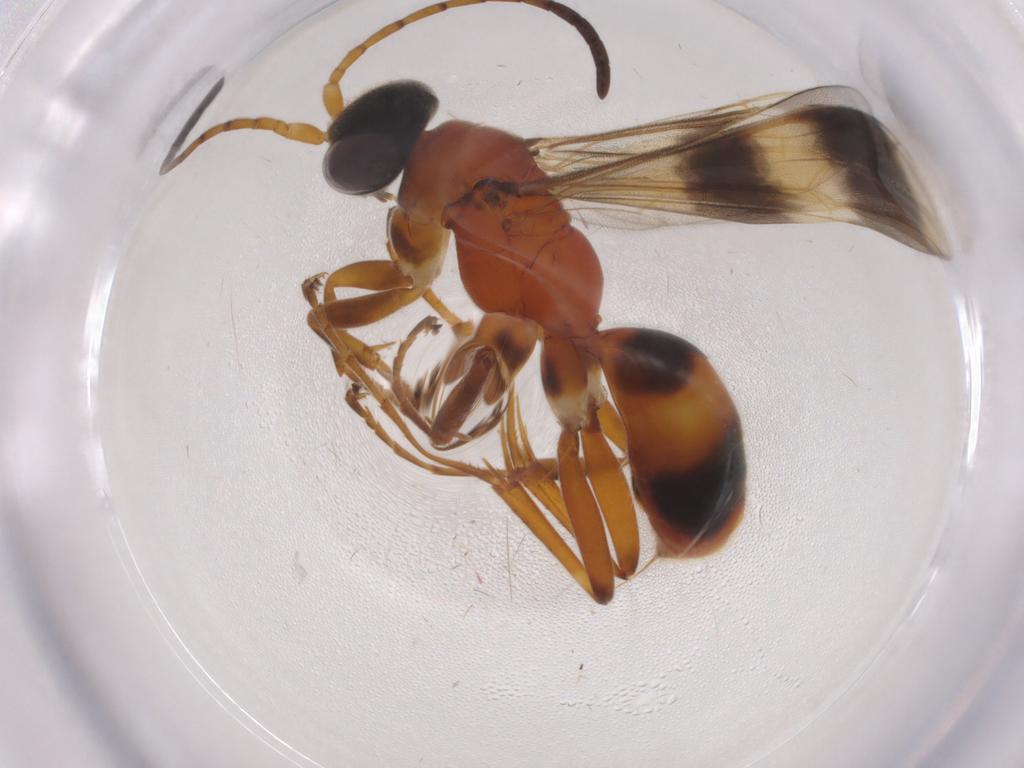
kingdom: Animalia
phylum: Arthropoda
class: Insecta
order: Hymenoptera
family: Pompilidae
